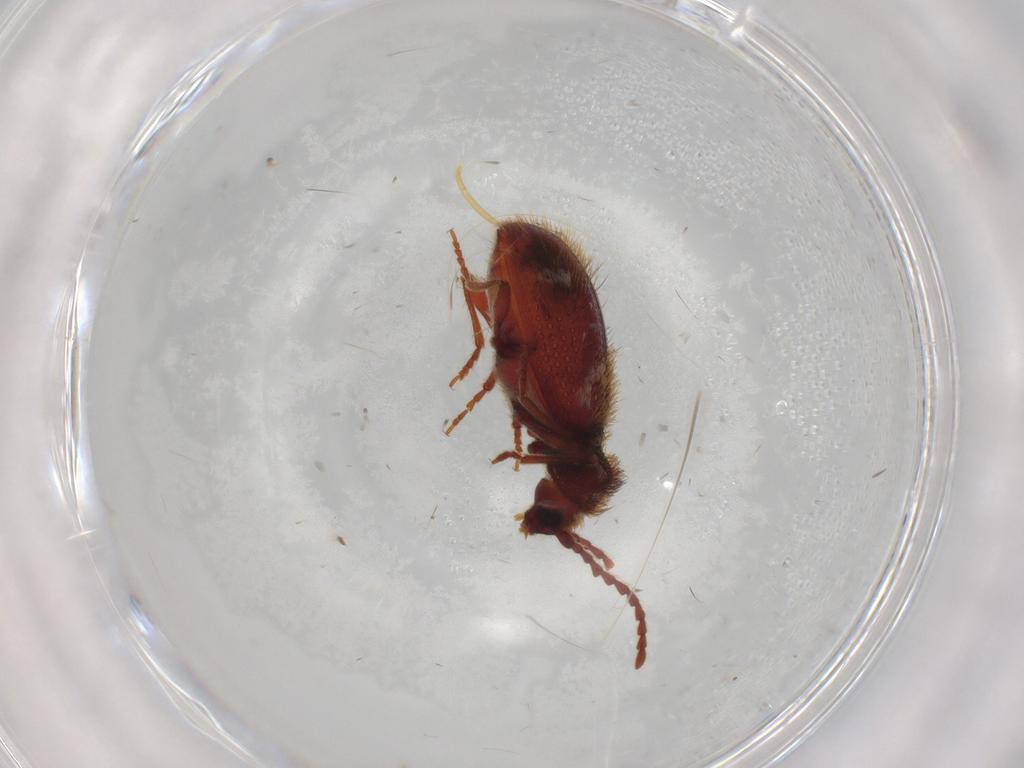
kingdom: Animalia
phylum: Arthropoda
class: Insecta
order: Coleoptera
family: Ptinidae
